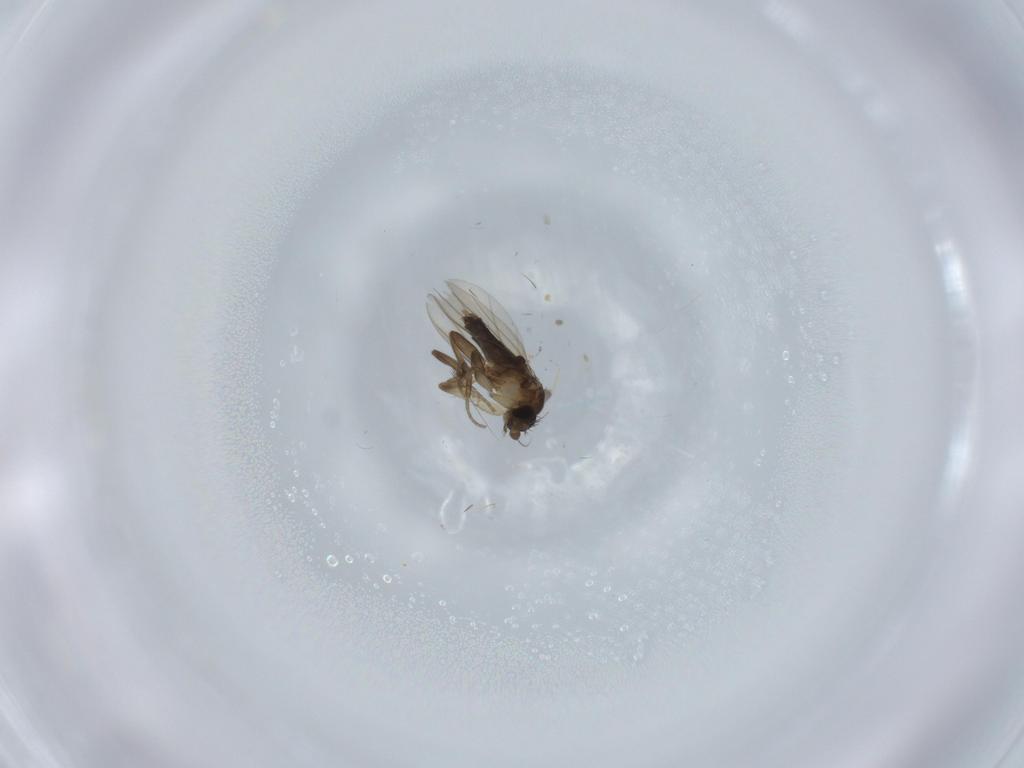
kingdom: Animalia
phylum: Arthropoda
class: Insecta
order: Diptera
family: Phoridae
